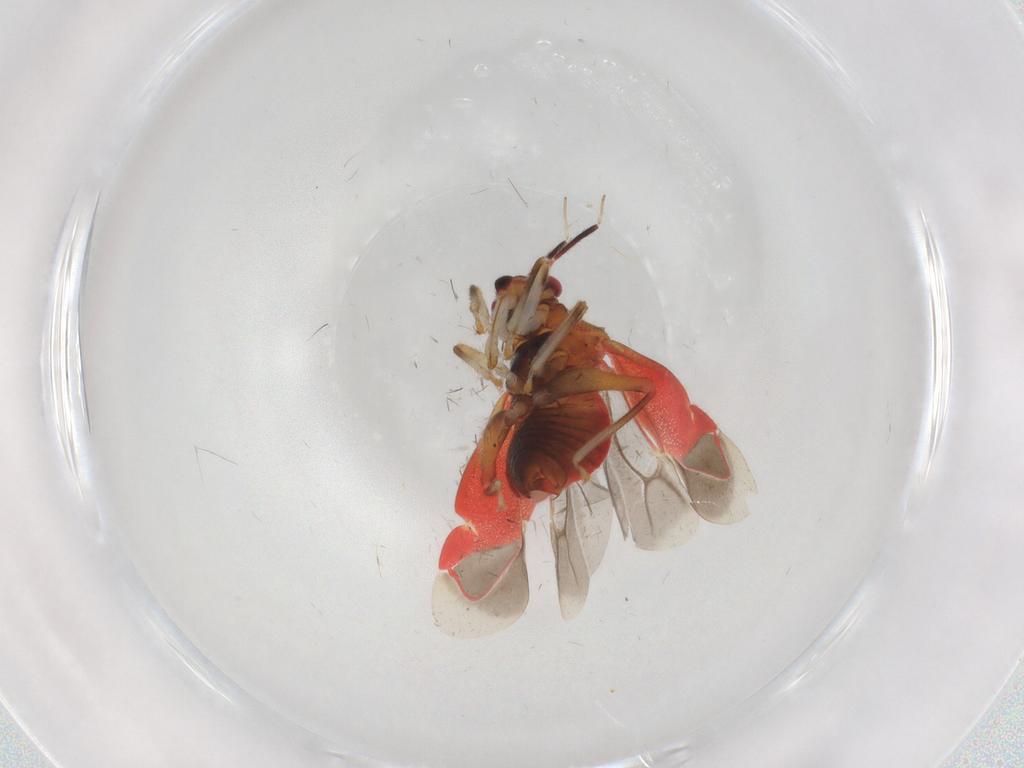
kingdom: Animalia
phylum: Arthropoda
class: Insecta
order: Hemiptera
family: Miridae
